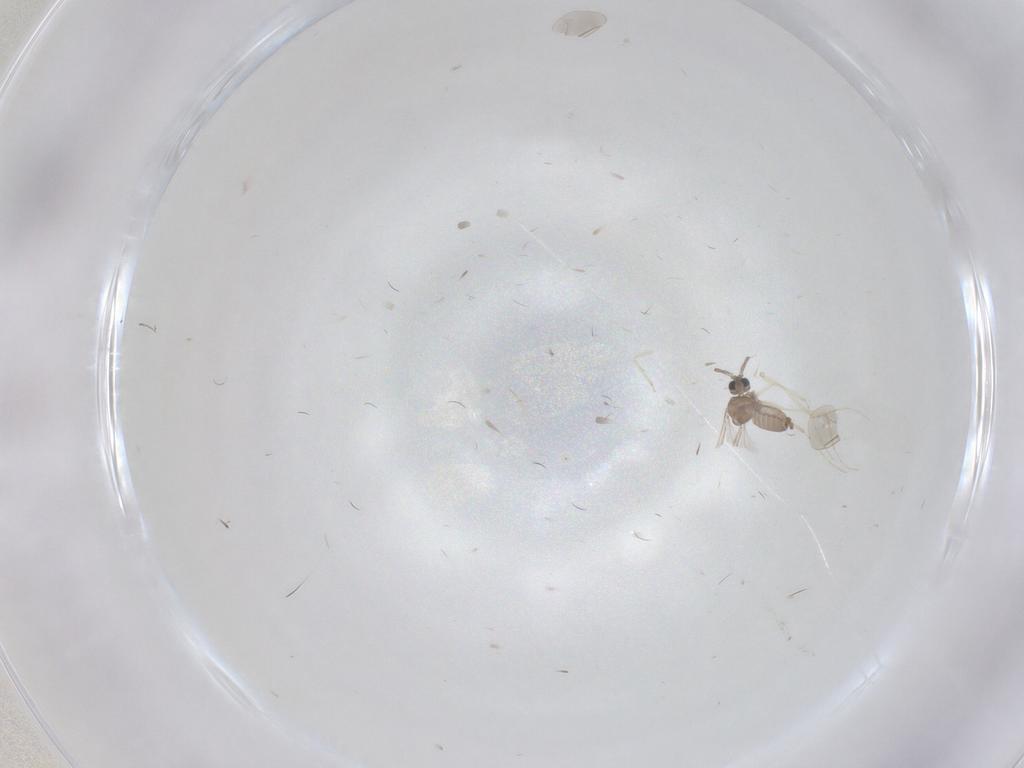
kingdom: Animalia
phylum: Arthropoda
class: Insecta
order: Diptera
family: Cecidomyiidae
